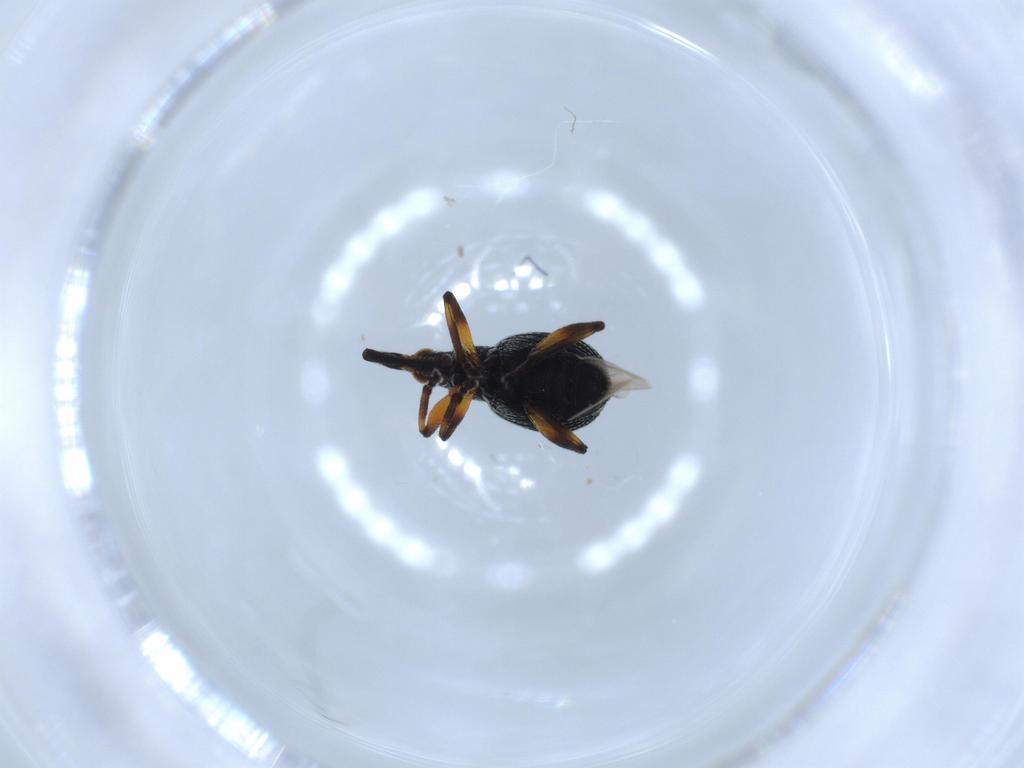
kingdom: Animalia
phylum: Arthropoda
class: Insecta
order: Coleoptera
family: Brentidae
